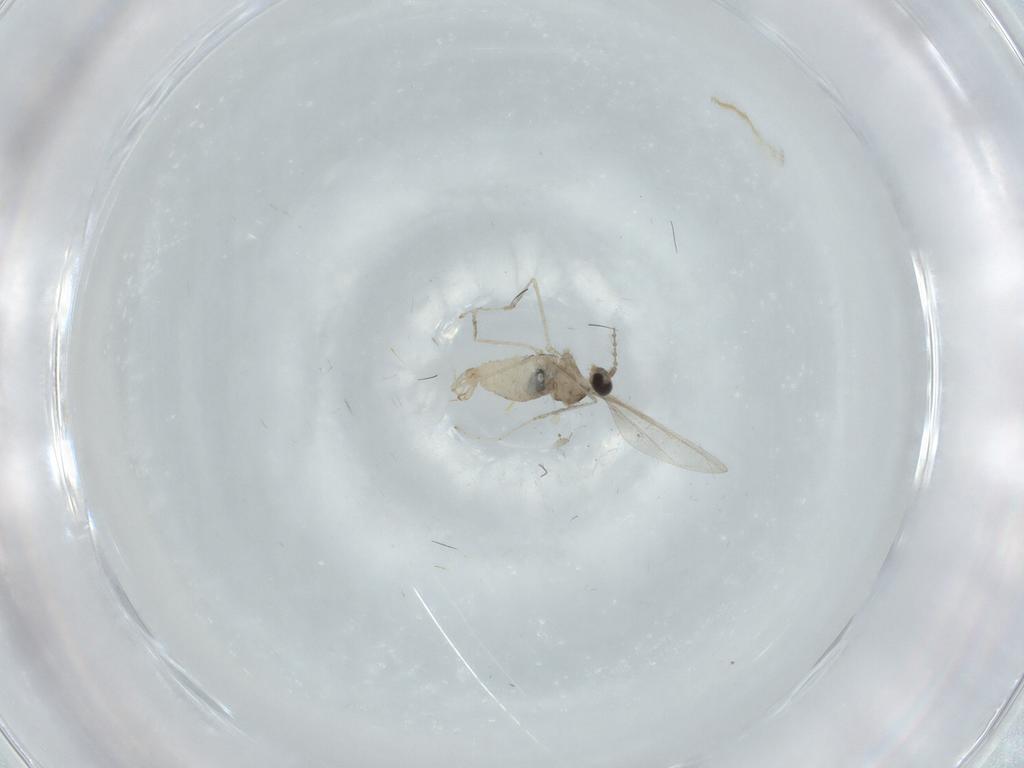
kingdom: Animalia
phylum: Arthropoda
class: Insecta
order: Diptera
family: Cecidomyiidae
